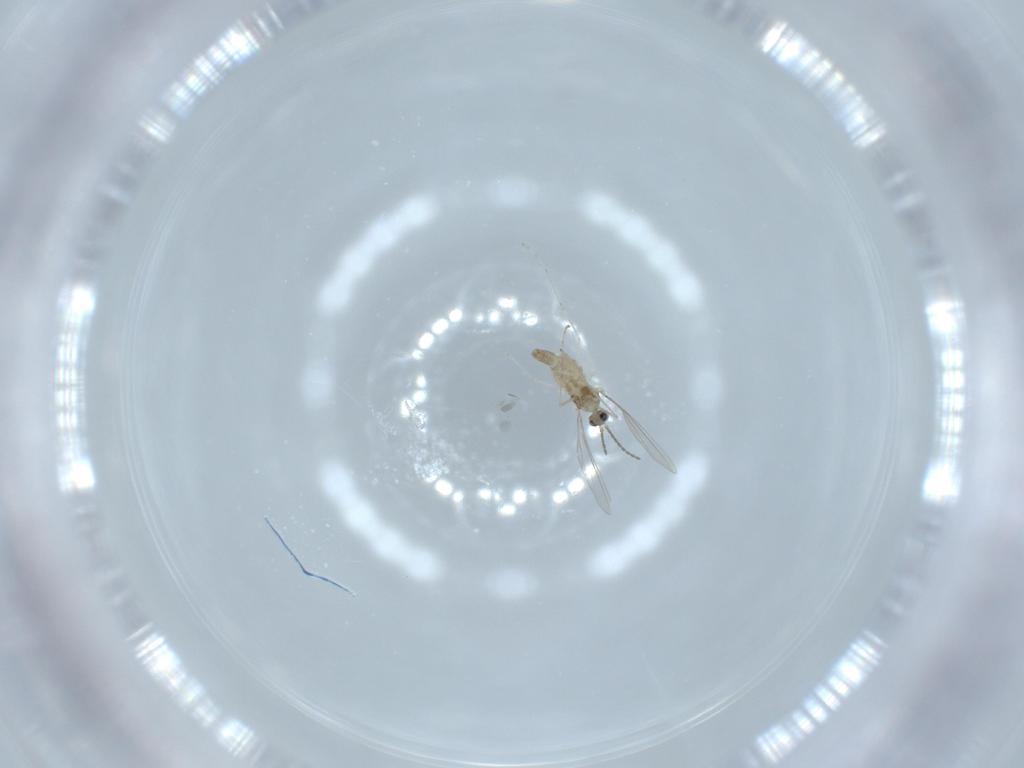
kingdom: Animalia
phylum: Arthropoda
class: Insecta
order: Diptera
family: Cecidomyiidae
